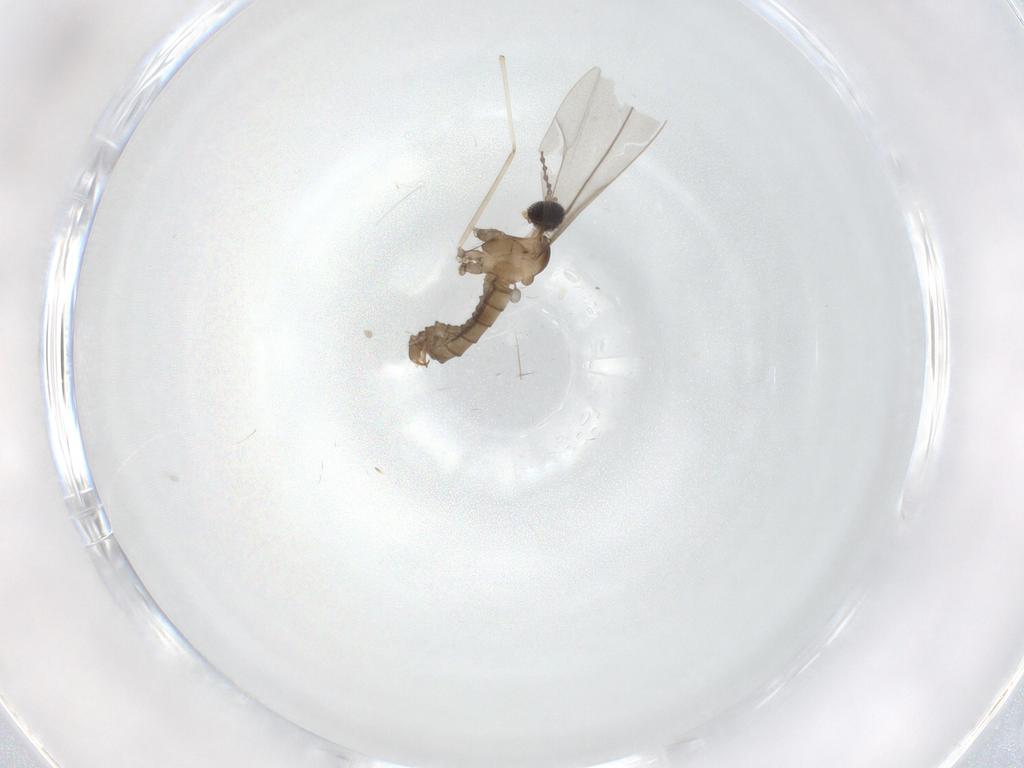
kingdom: Animalia
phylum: Arthropoda
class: Insecta
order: Diptera
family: Cecidomyiidae
